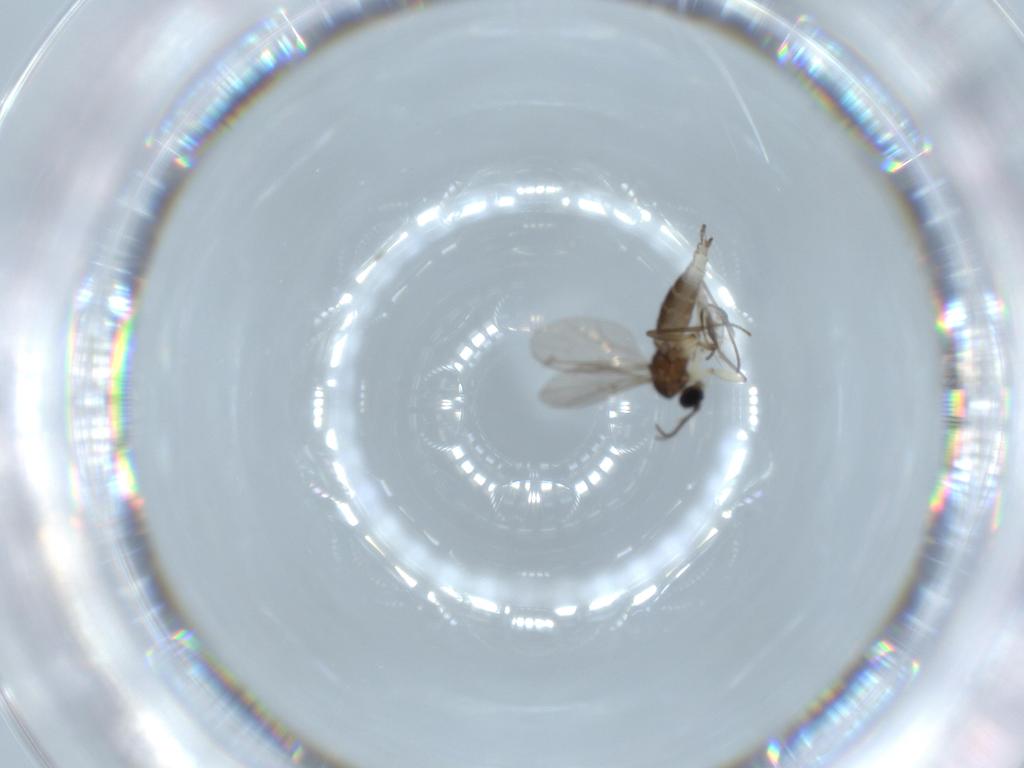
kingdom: Animalia
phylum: Arthropoda
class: Insecta
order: Diptera
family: Sciaridae
